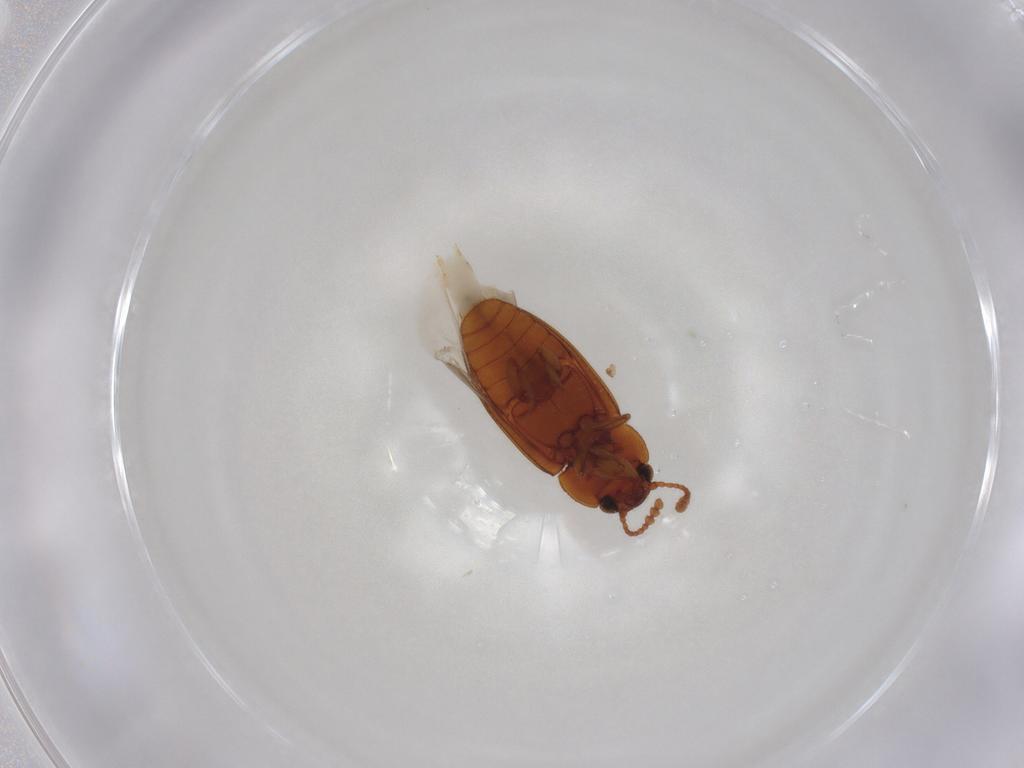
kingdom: Animalia
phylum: Arthropoda
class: Insecta
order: Coleoptera
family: Erotylidae
